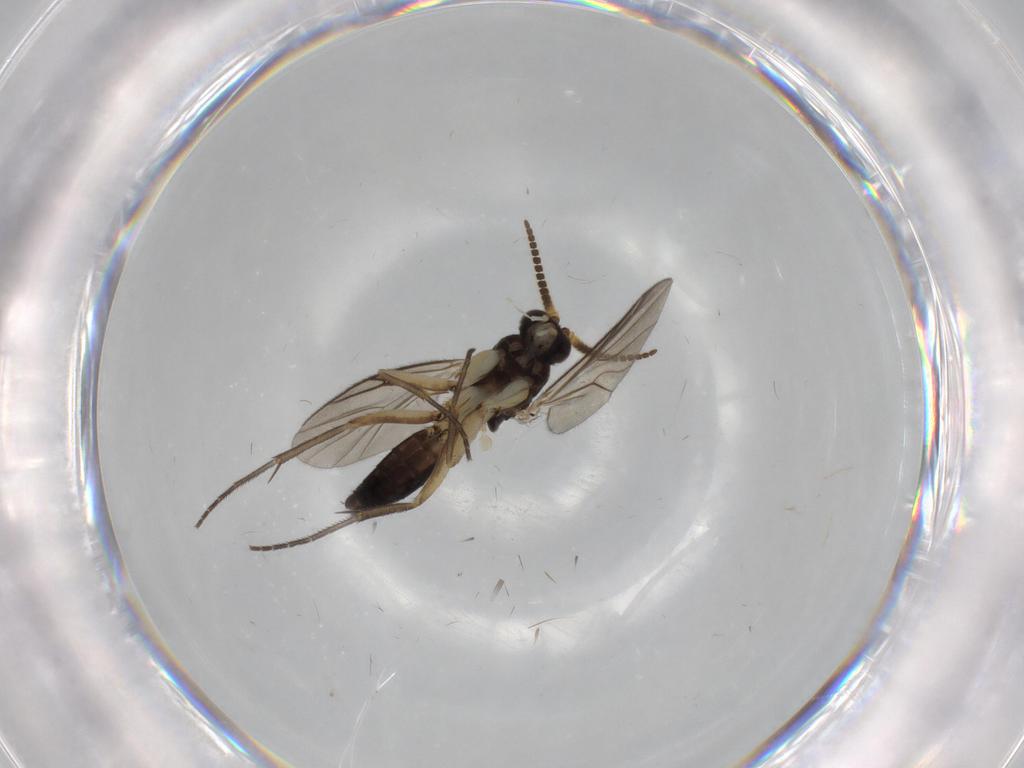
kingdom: Animalia
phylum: Arthropoda
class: Insecta
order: Diptera
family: Mycetophilidae
